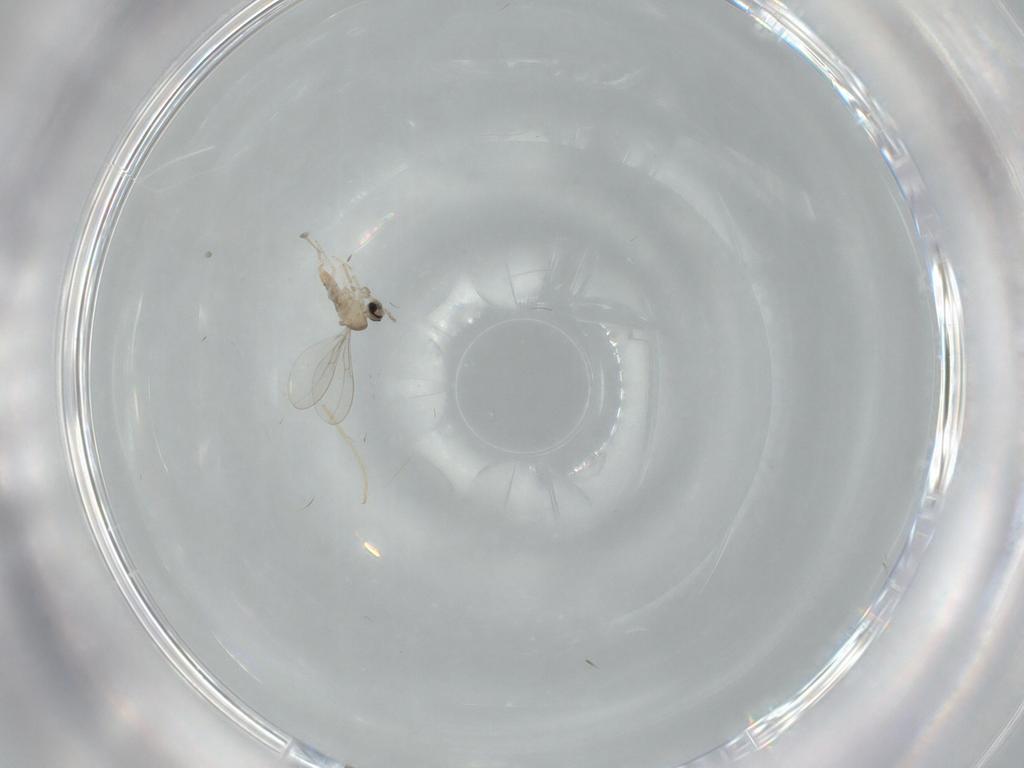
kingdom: Animalia
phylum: Arthropoda
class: Insecta
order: Diptera
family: Cecidomyiidae
